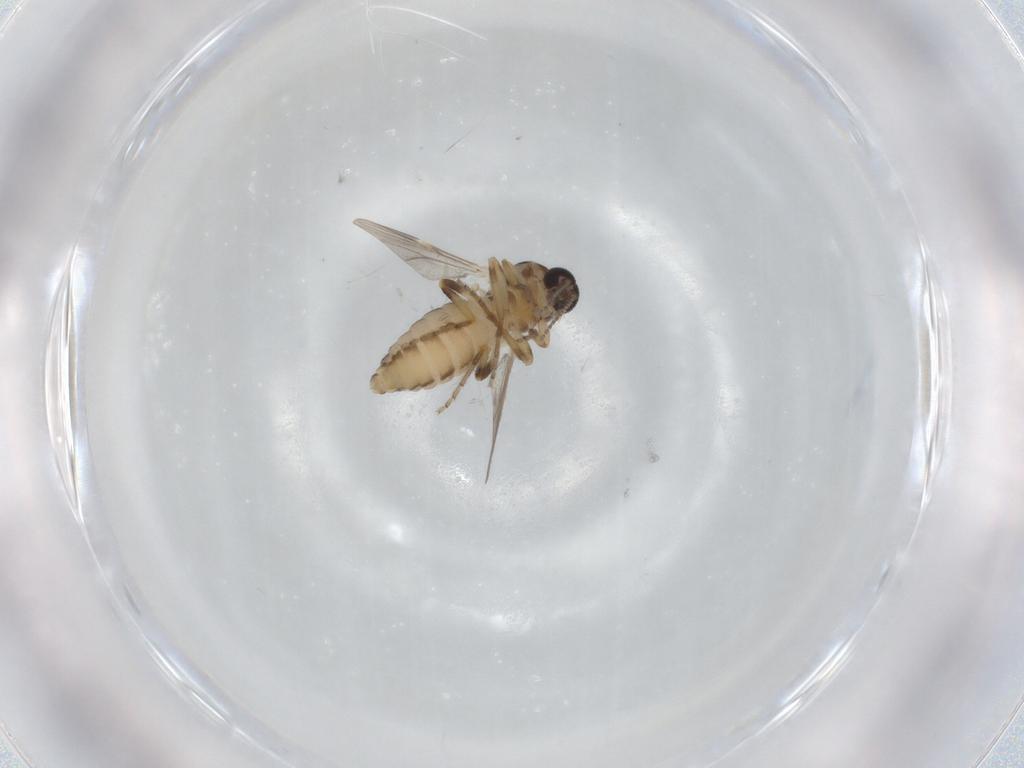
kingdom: Animalia
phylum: Arthropoda
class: Insecta
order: Diptera
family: Ceratopogonidae
